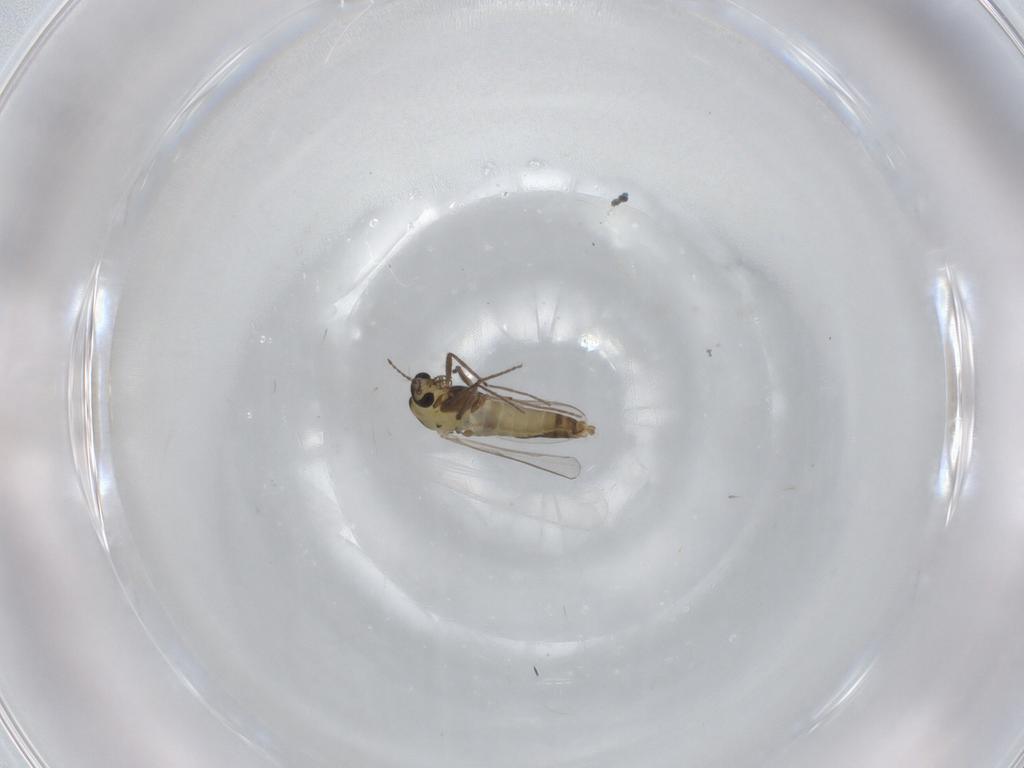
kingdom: Animalia
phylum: Arthropoda
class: Insecta
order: Diptera
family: Chironomidae
